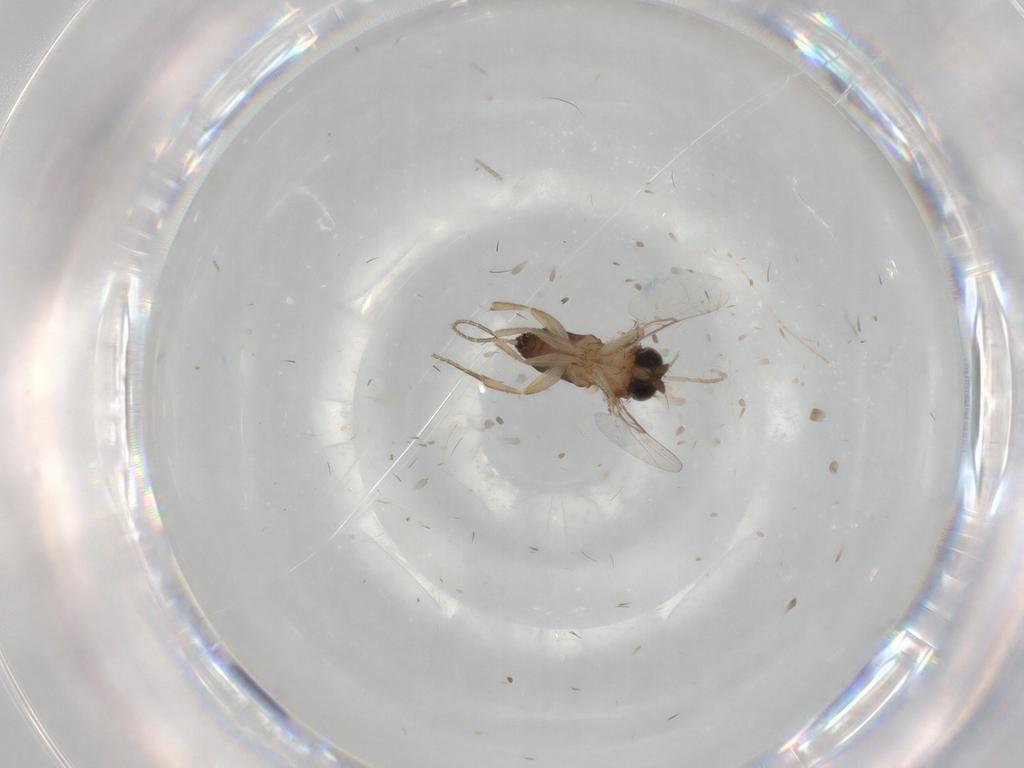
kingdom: Animalia
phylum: Arthropoda
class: Insecta
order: Diptera
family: Phoridae
